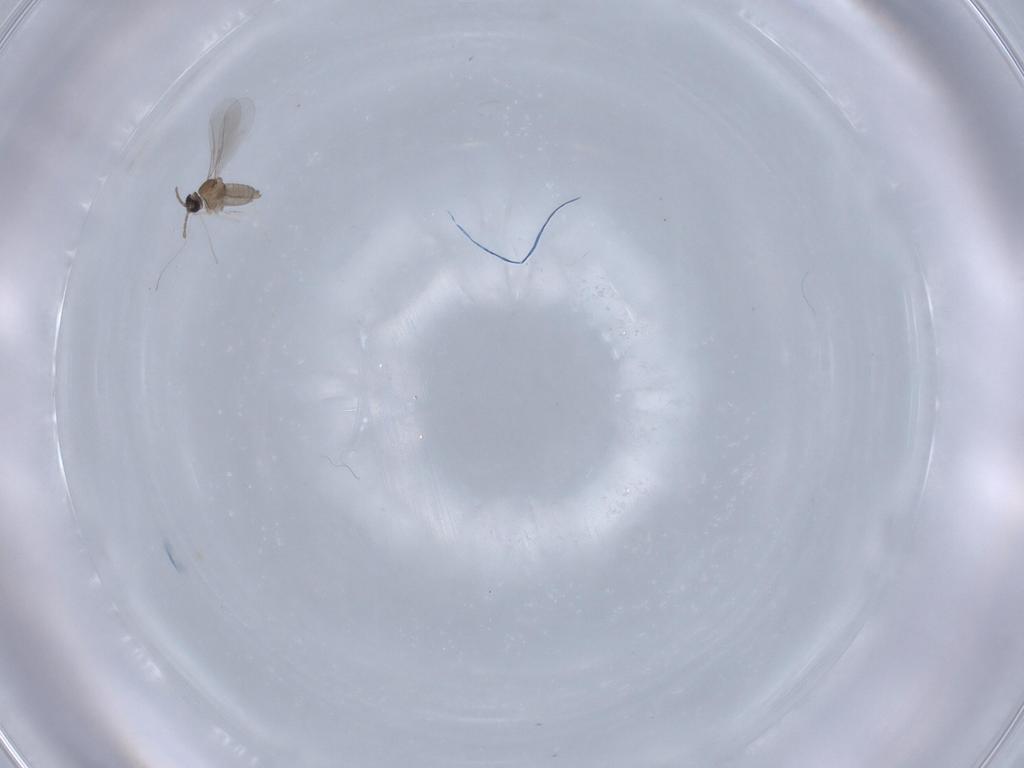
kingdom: Animalia
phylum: Arthropoda
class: Insecta
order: Diptera
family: Cecidomyiidae
